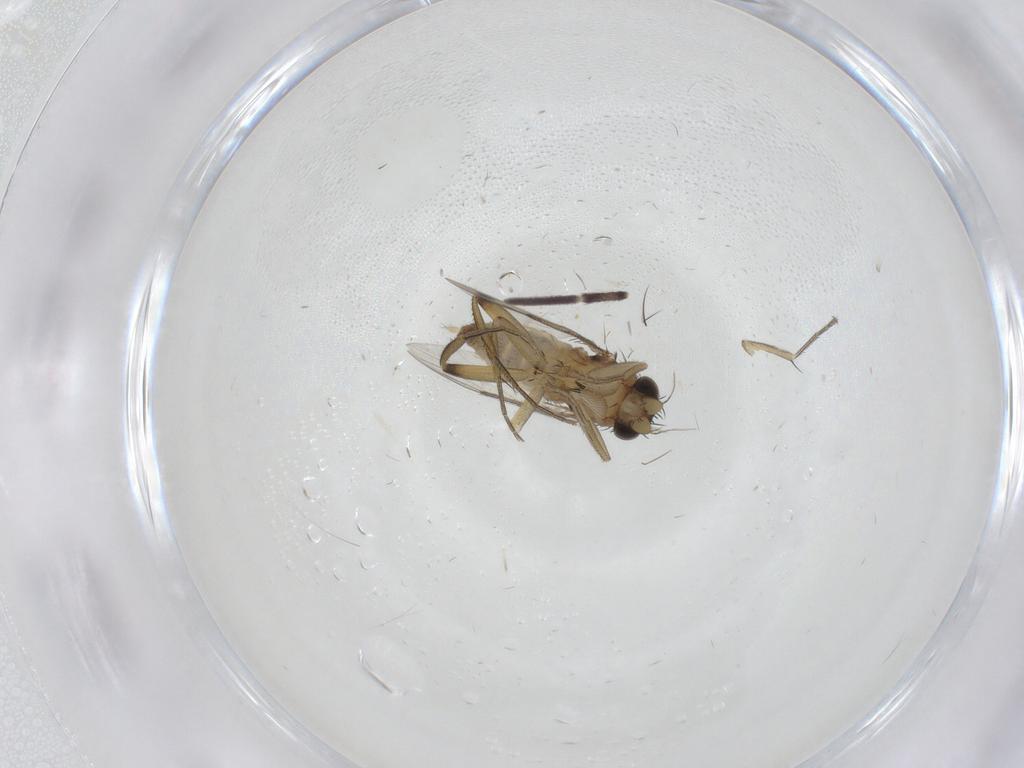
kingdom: Animalia
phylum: Arthropoda
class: Insecta
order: Diptera
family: Phoridae
